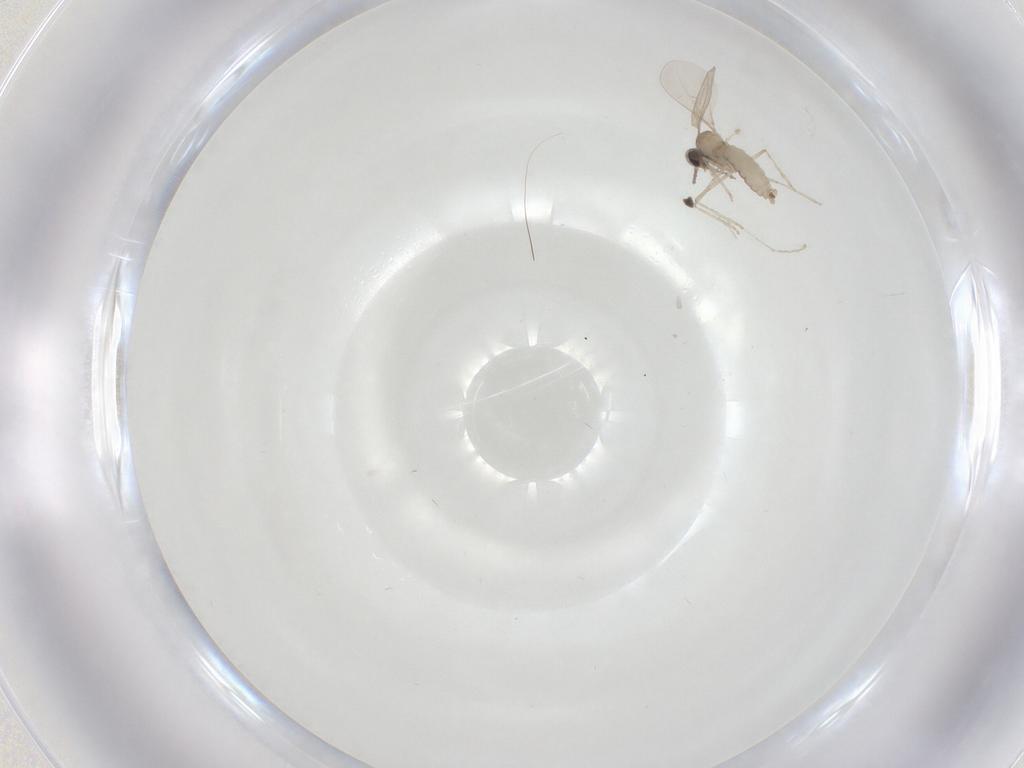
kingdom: Animalia
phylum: Arthropoda
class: Insecta
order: Diptera
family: Cecidomyiidae
